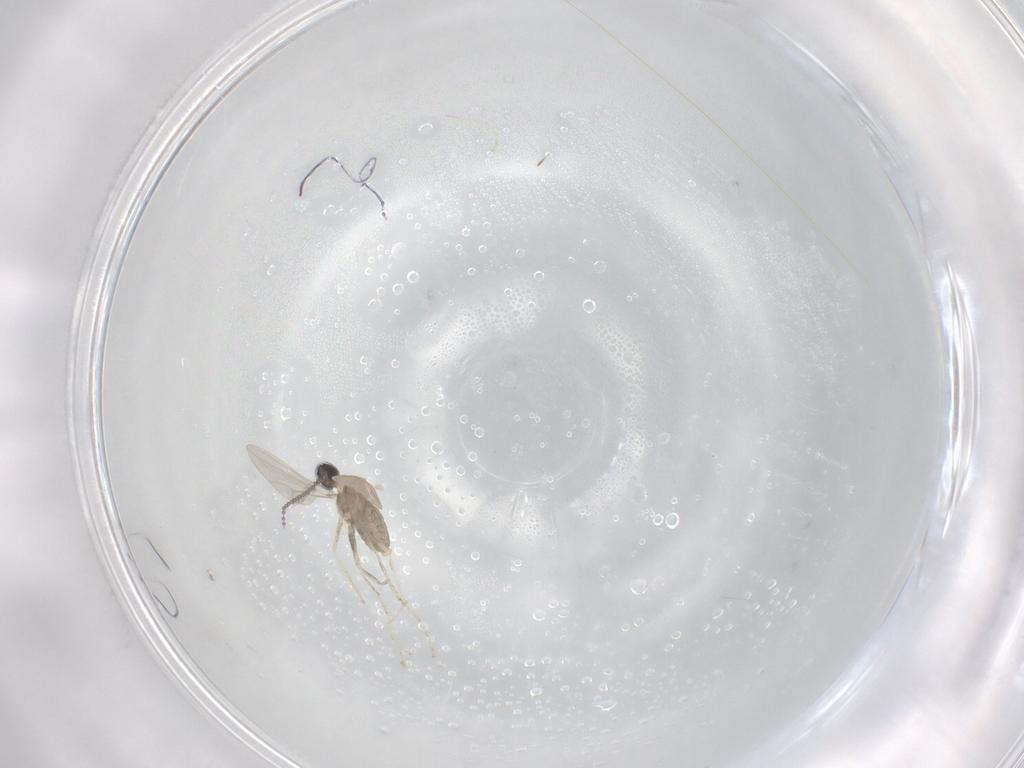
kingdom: Animalia
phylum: Arthropoda
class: Insecta
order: Diptera
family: Cecidomyiidae
